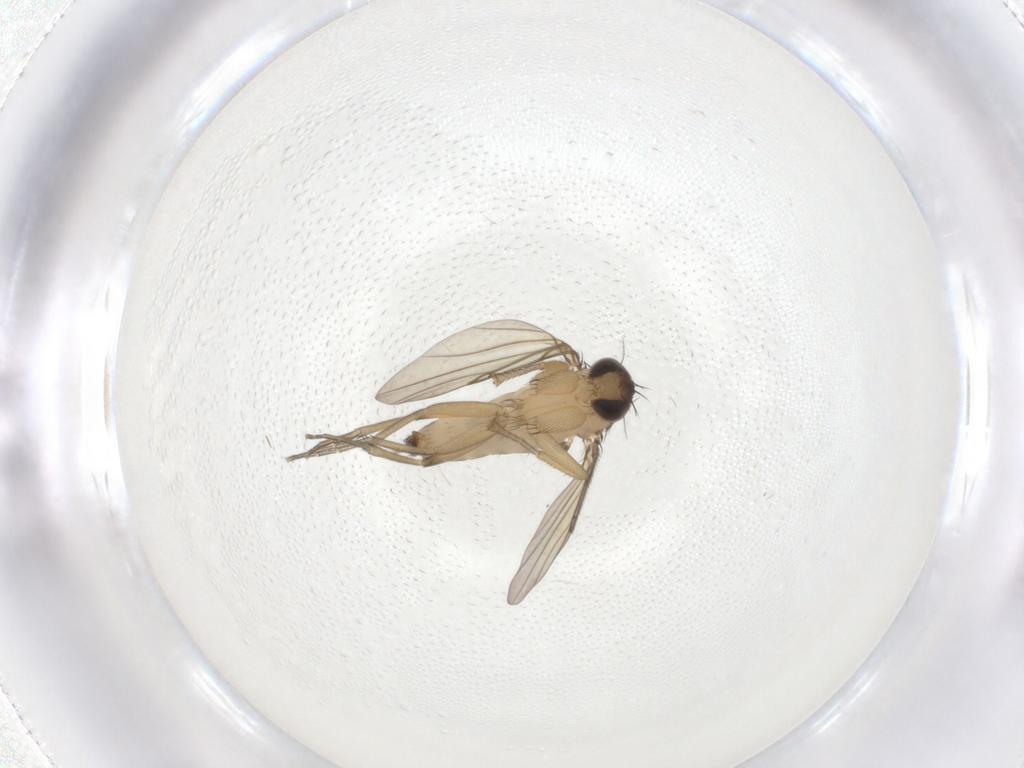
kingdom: Animalia
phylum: Arthropoda
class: Insecta
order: Diptera
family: Phoridae
